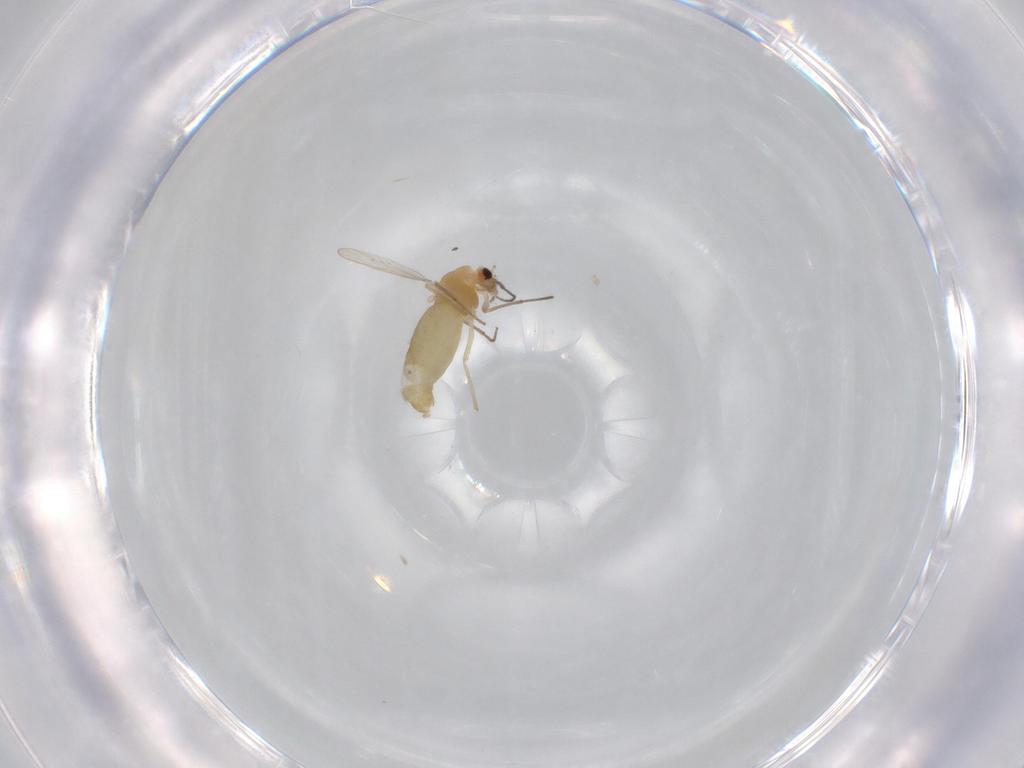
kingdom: Animalia
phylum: Arthropoda
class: Insecta
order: Diptera
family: Chironomidae
